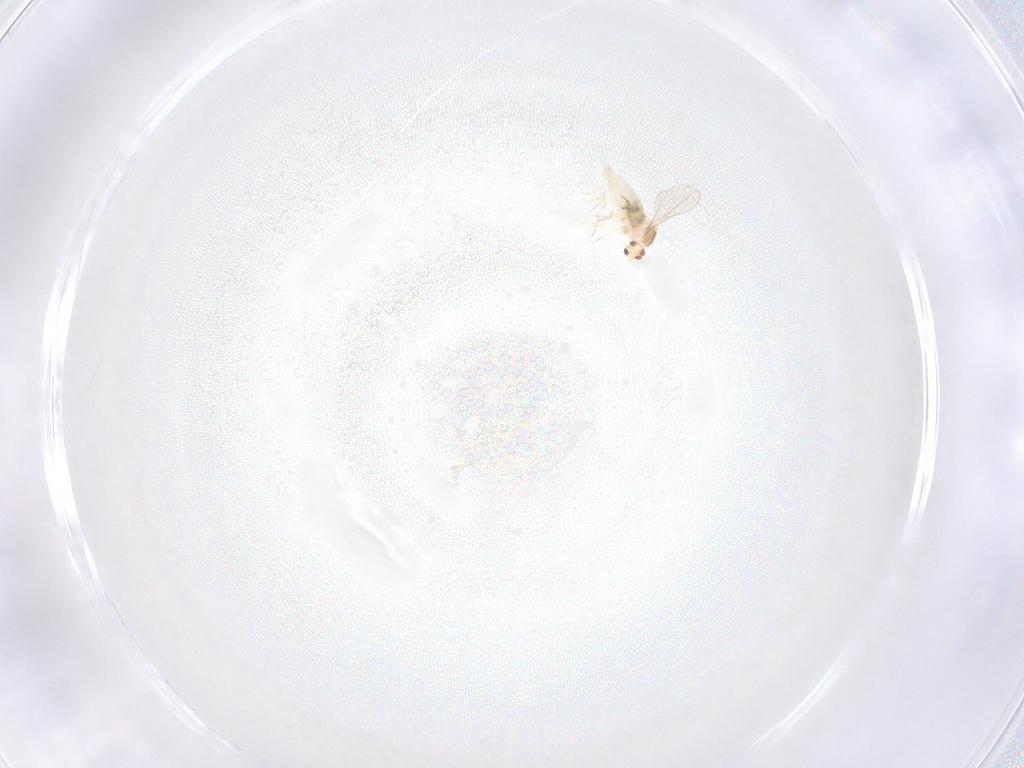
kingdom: Animalia
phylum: Arthropoda
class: Insecta
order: Diptera
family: Cecidomyiidae
